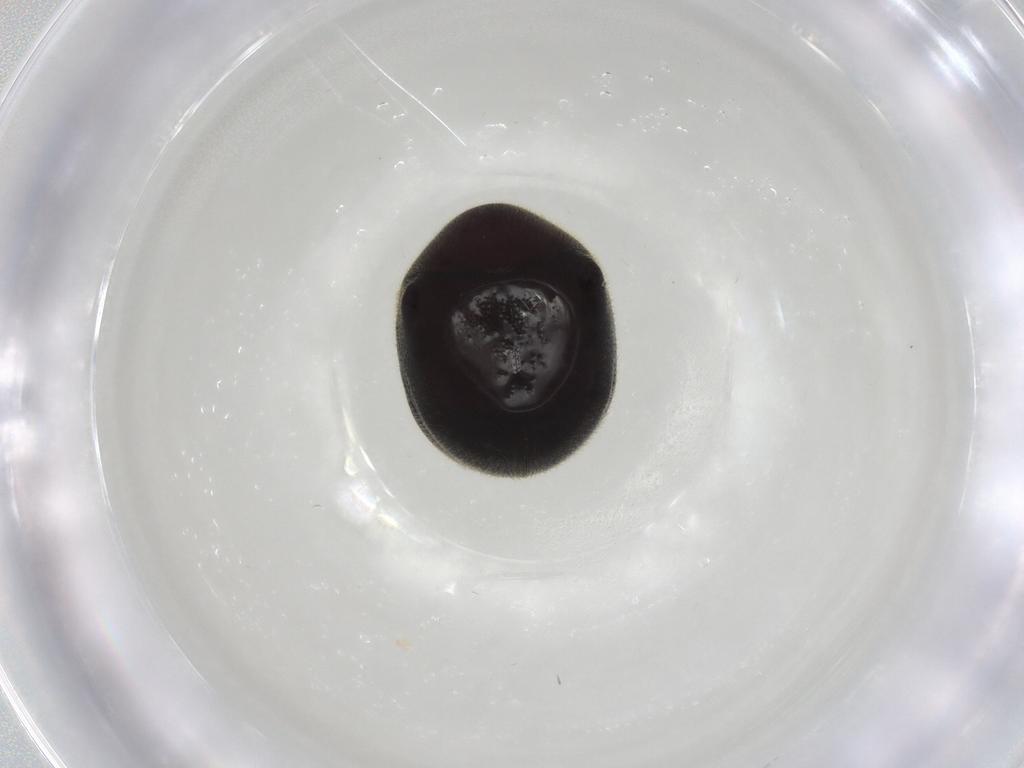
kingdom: Animalia
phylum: Arthropoda
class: Insecta
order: Coleoptera
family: Ptinidae
